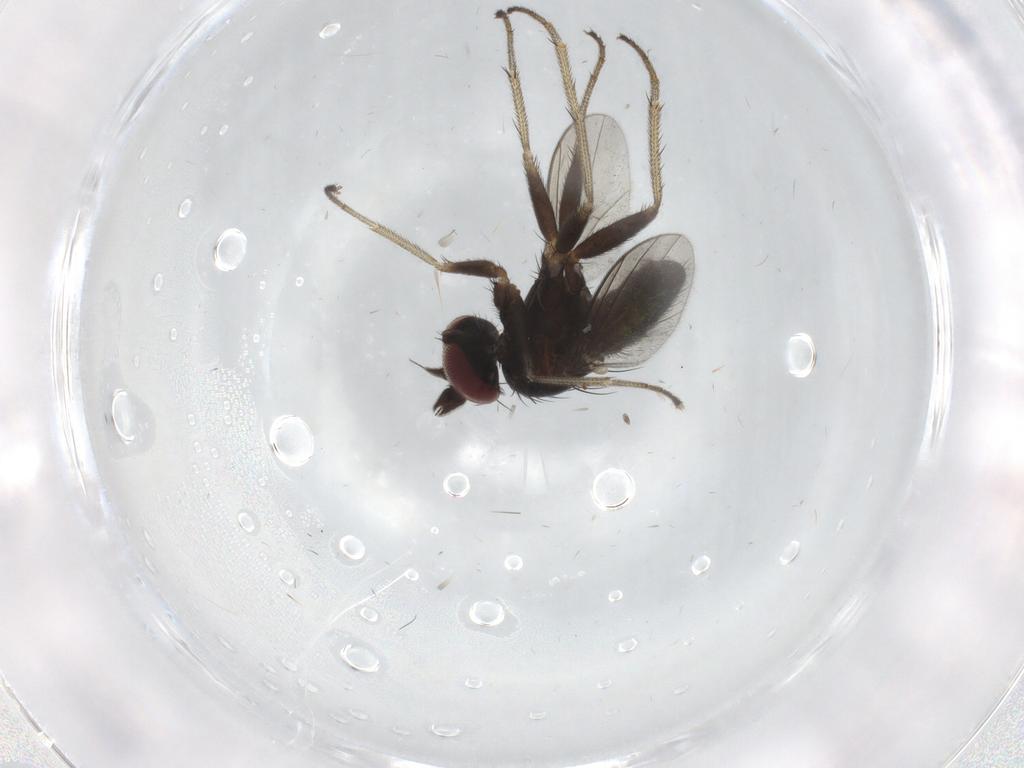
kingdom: Animalia
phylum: Arthropoda
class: Insecta
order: Diptera
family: Dolichopodidae
